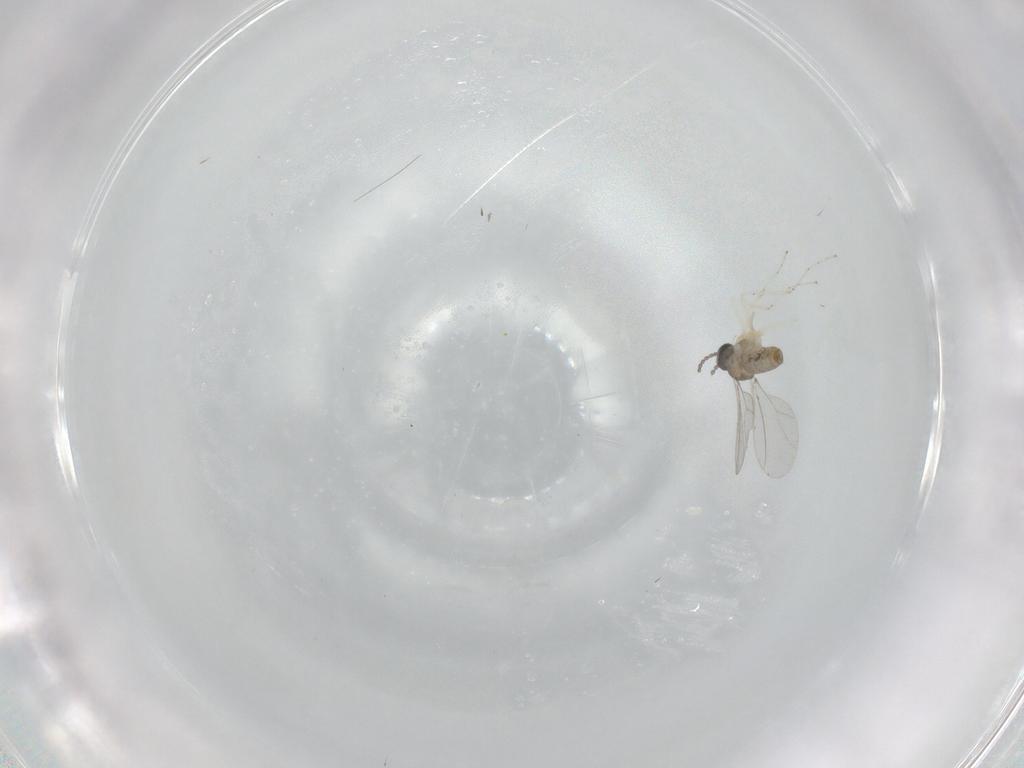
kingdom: Animalia
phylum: Arthropoda
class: Insecta
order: Diptera
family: Cecidomyiidae
